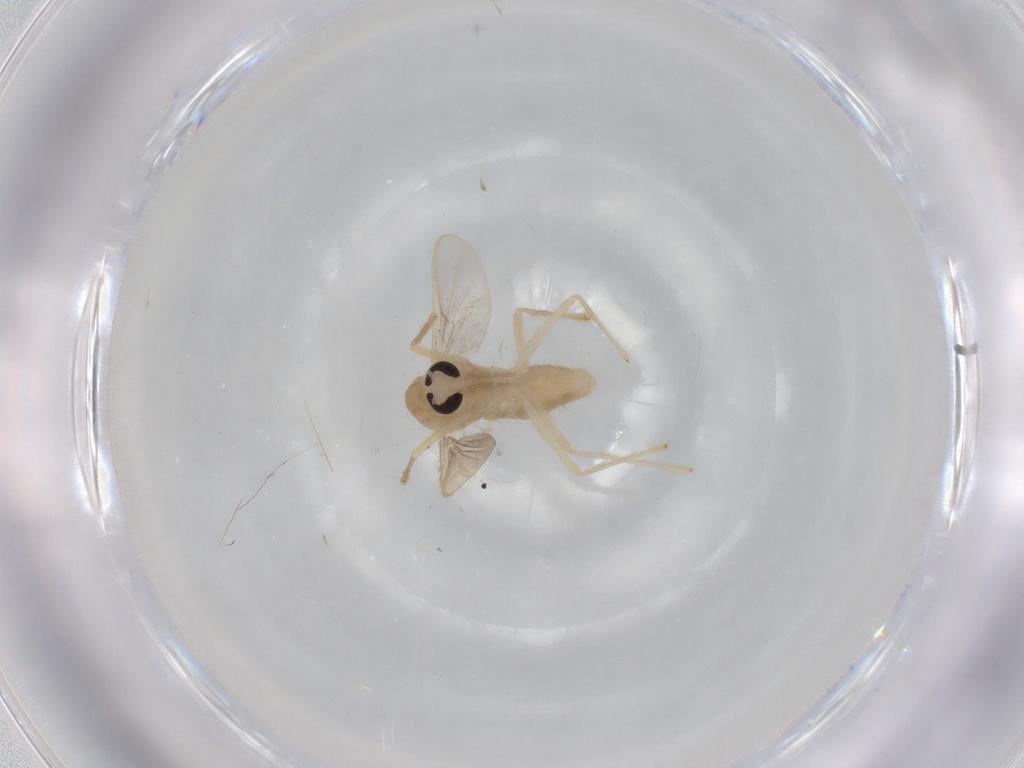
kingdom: Animalia
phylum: Arthropoda
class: Insecta
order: Diptera
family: Chironomidae
